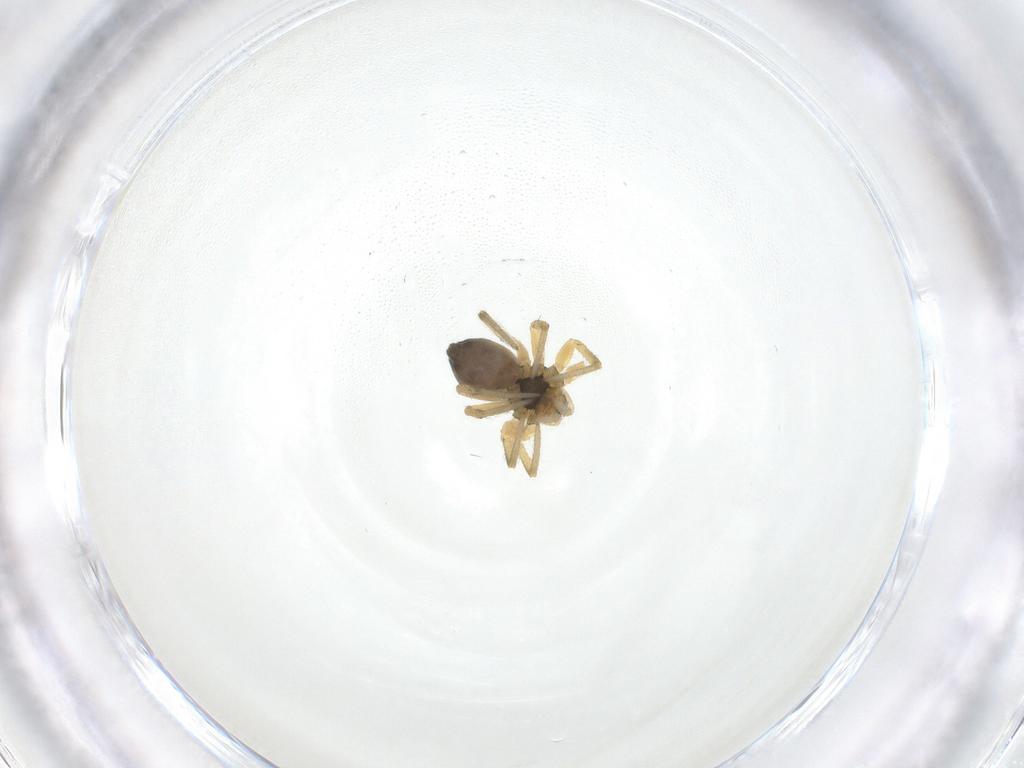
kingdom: Animalia
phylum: Arthropoda
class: Arachnida
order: Araneae
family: Linyphiidae
